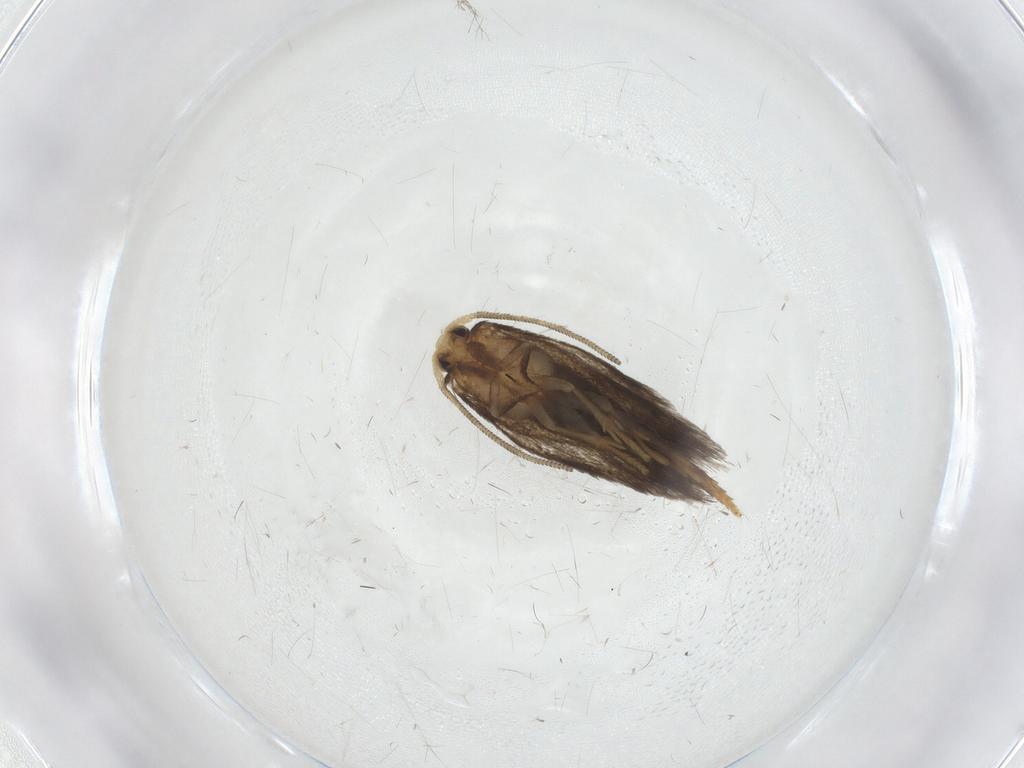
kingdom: Animalia
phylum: Arthropoda
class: Insecta
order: Lepidoptera
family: Nepticulidae
